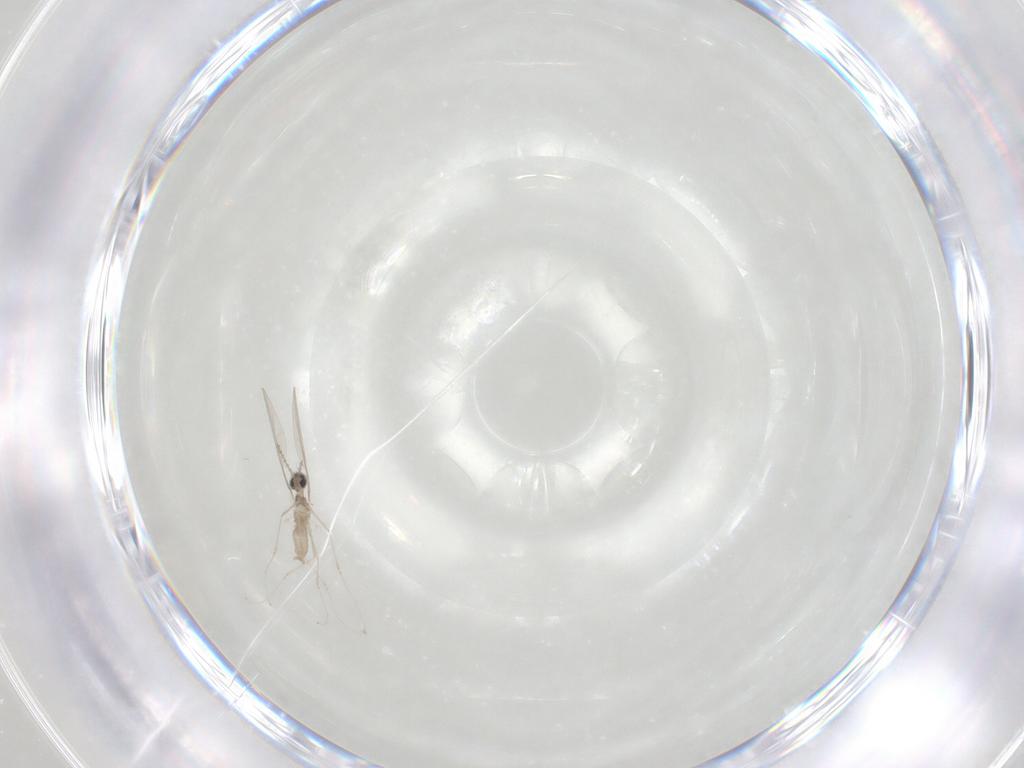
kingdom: Animalia
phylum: Arthropoda
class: Insecta
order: Diptera
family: Cecidomyiidae
